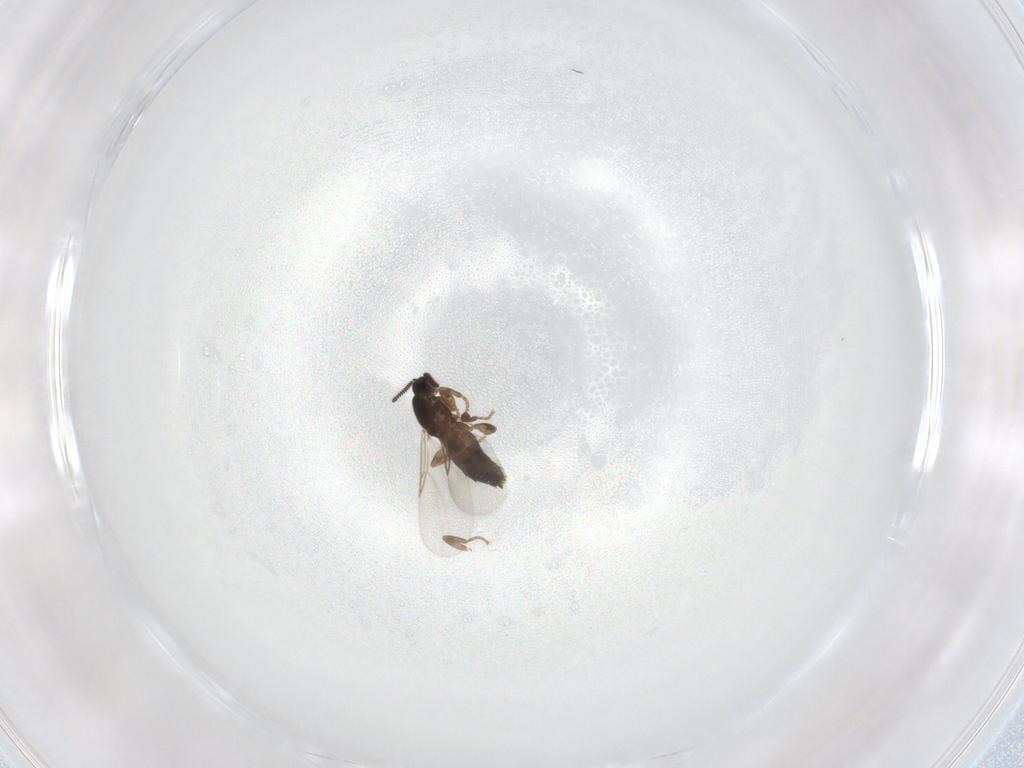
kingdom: Animalia
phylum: Arthropoda
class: Insecta
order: Diptera
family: Scatopsidae
